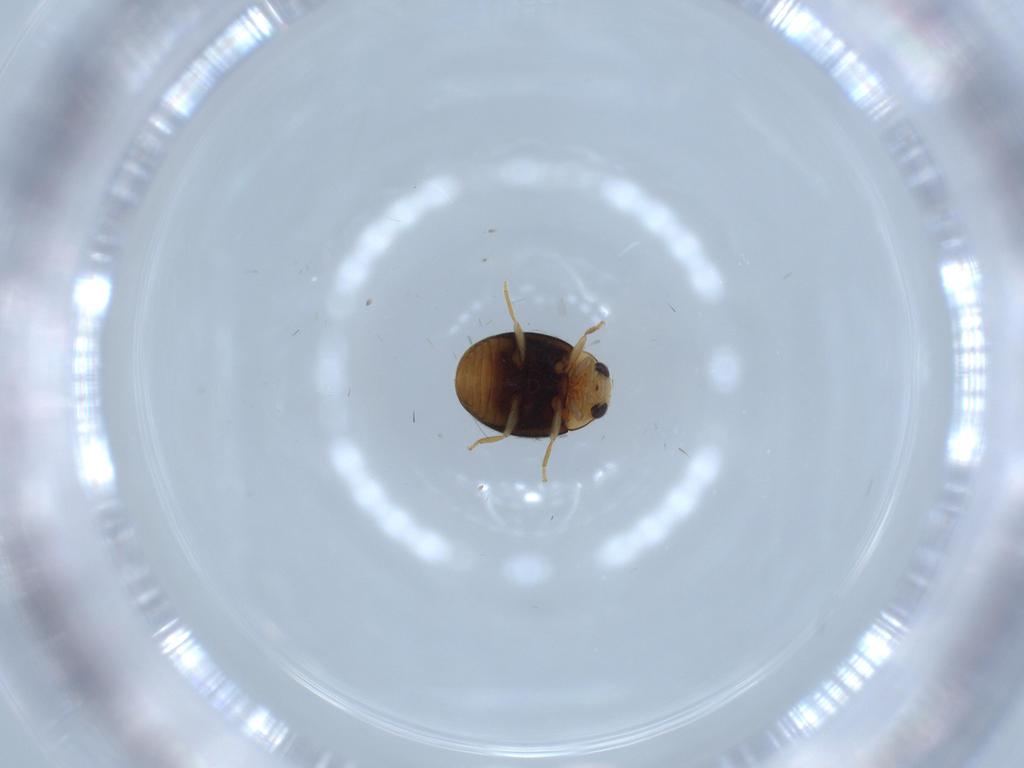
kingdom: Animalia
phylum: Arthropoda
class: Insecta
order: Coleoptera
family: Coccinellidae
